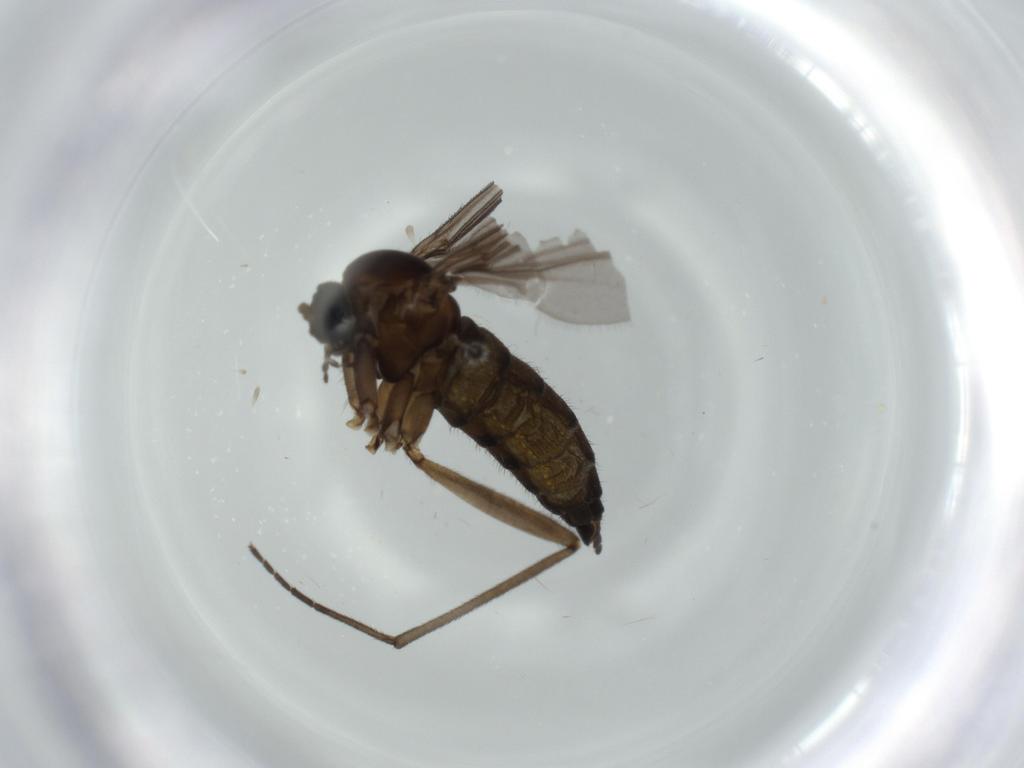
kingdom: Animalia
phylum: Arthropoda
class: Insecta
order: Diptera
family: Sciaridae
